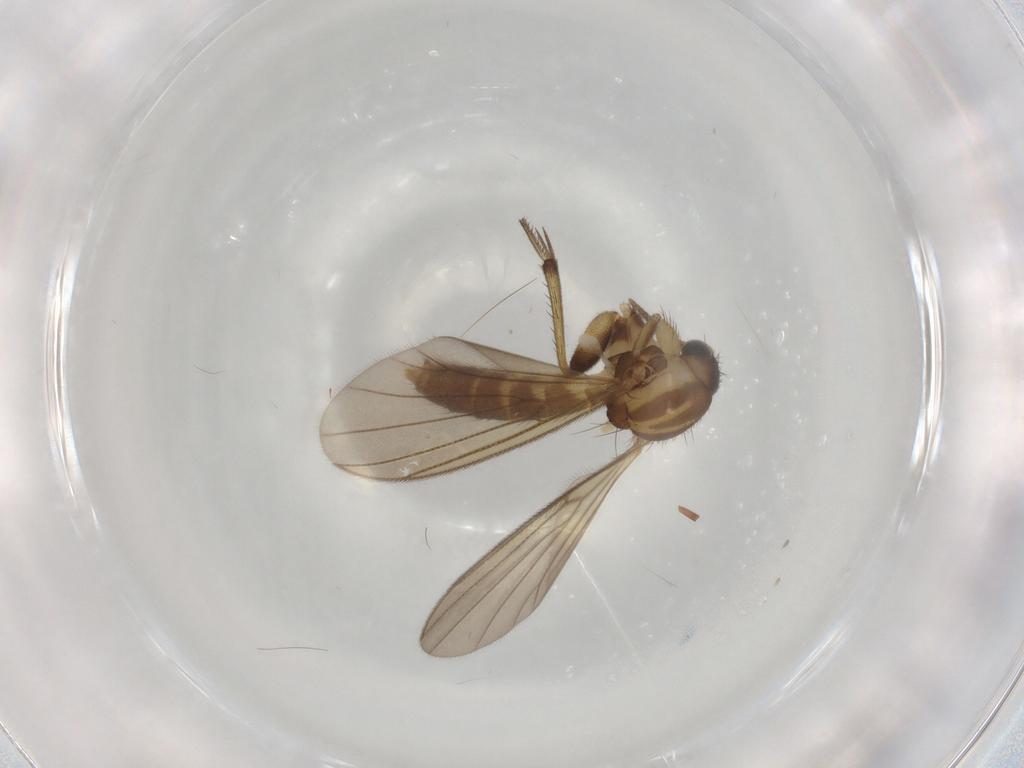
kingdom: Animalia
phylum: Arthropoda
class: Insecta
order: Diptera
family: Mycetophilidae
